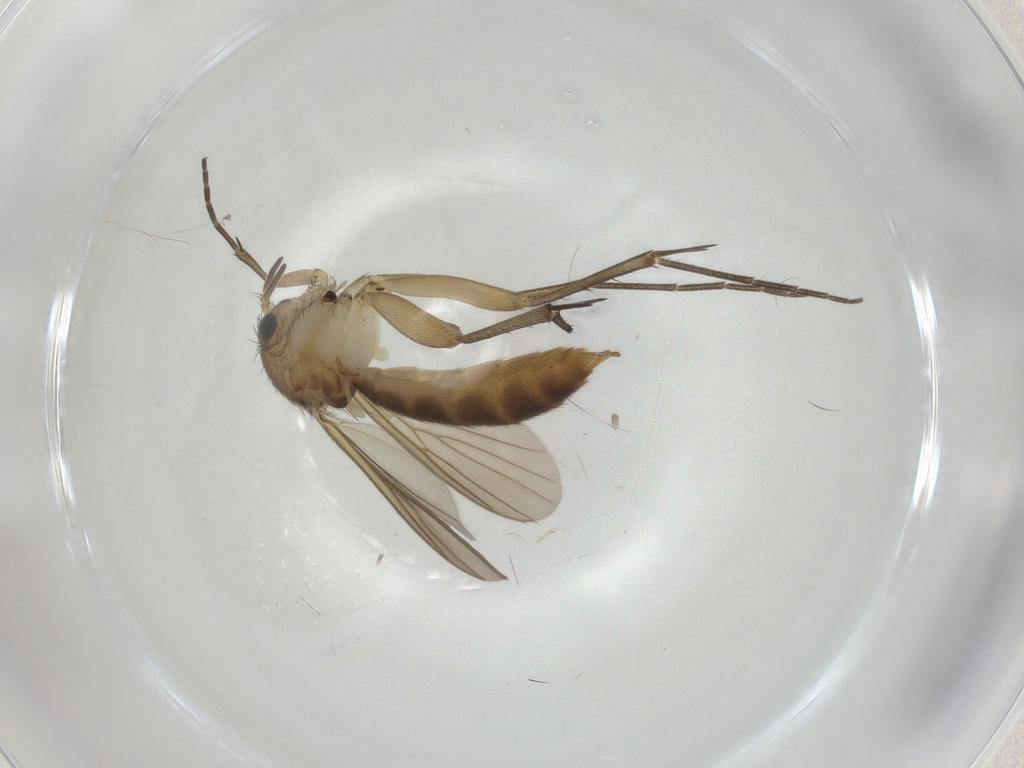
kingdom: Animalia
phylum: Arthropoda
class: Insecta
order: Diptera
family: Mycetophilidae
